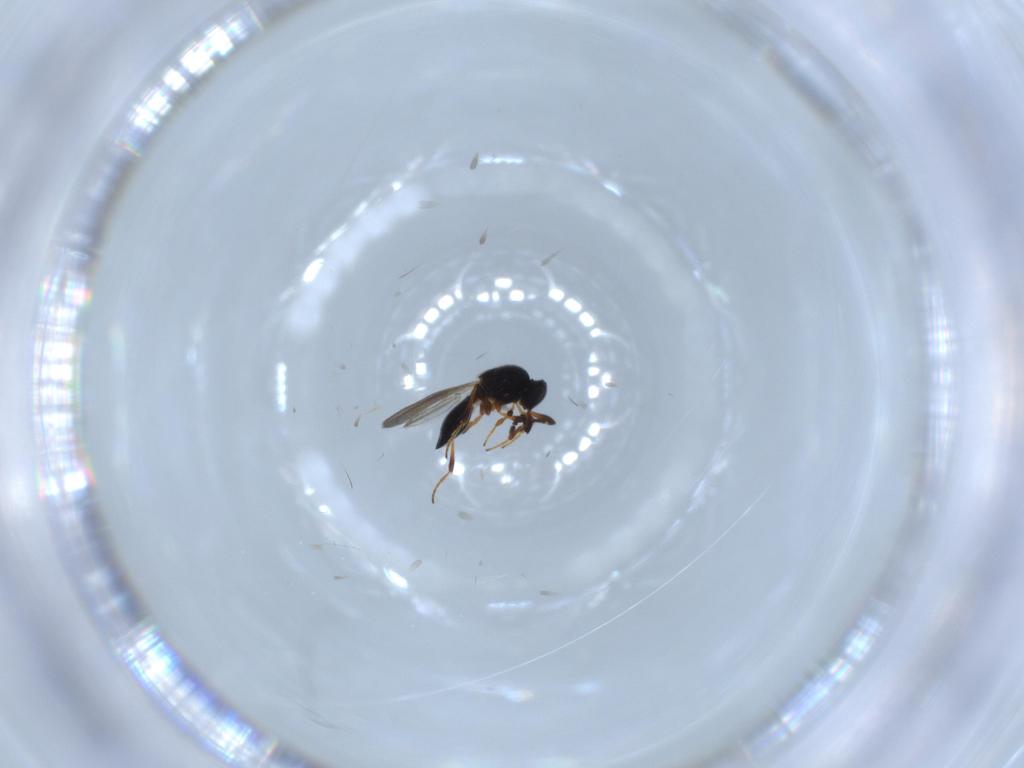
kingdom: Animalia
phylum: Arthropoda
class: Insecta
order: Hymenoptera
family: Platygastridae
